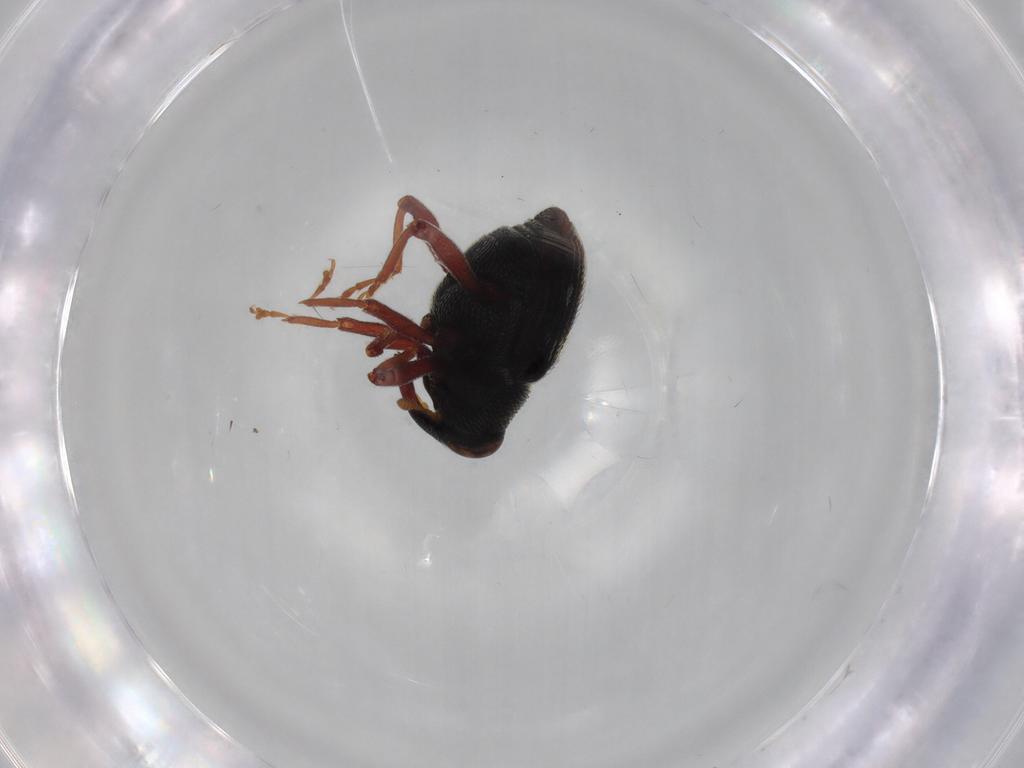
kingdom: Animalia
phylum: Arthropoda
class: Insecta
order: Coleoptera
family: Curculionidae
